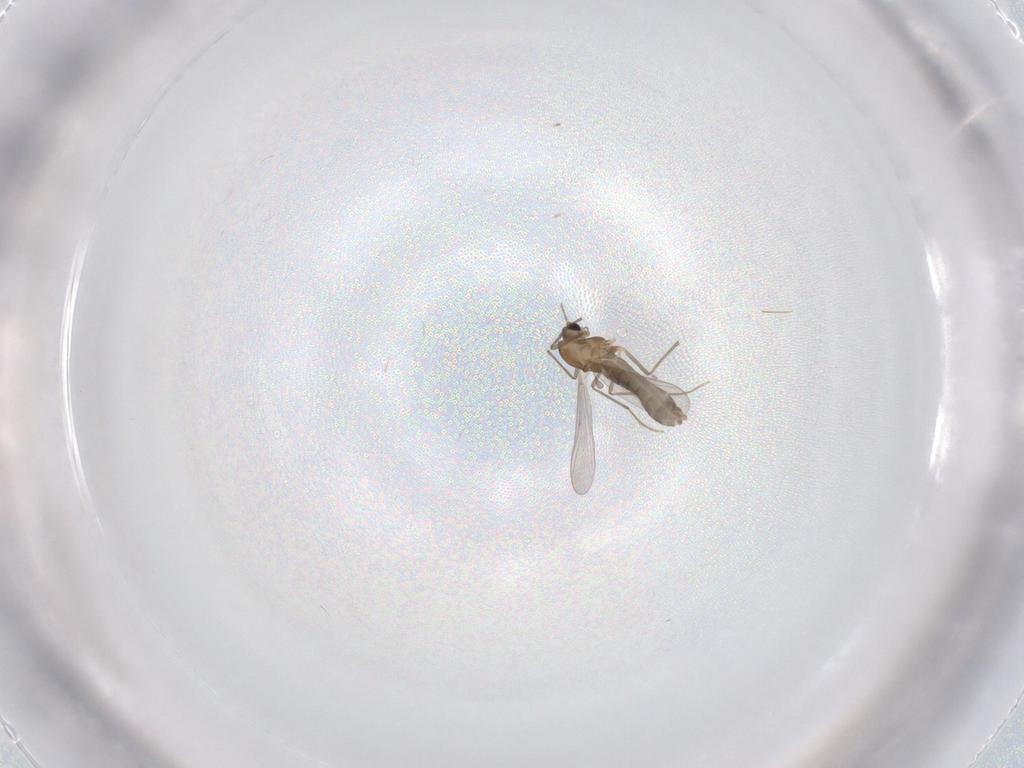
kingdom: Animalia
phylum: Arthropoda
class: Insecta
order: Diptera
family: Chironomidae
